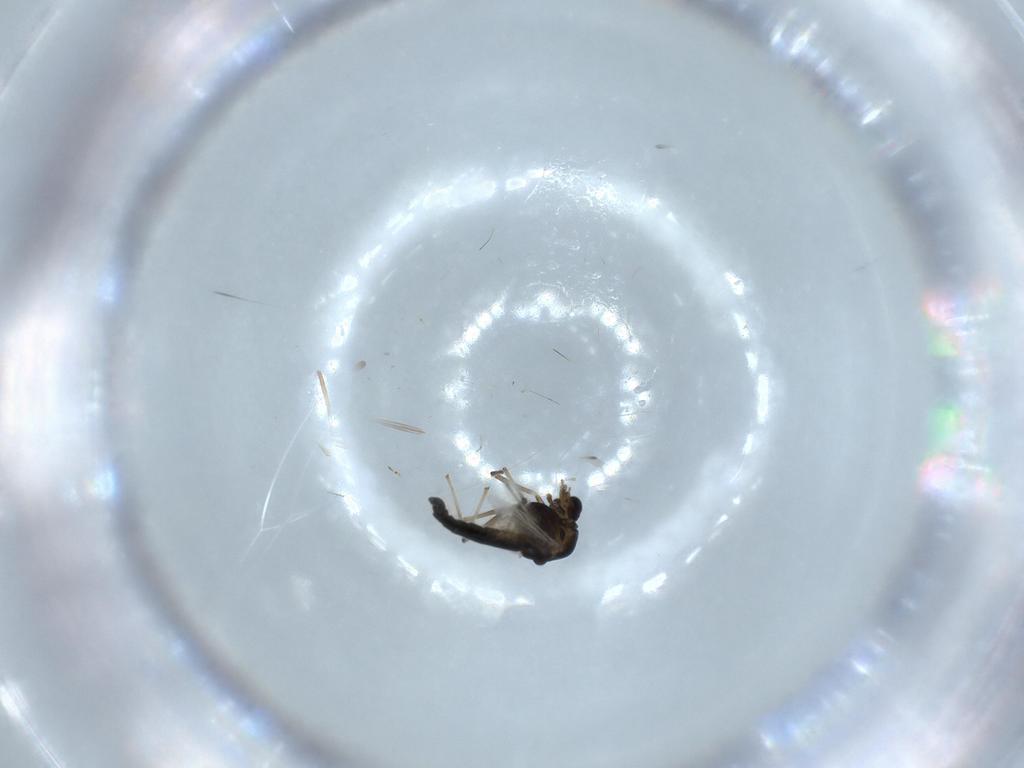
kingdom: Animalia
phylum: Arthropoda
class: Insecta
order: Diptera
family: Chironomidae
